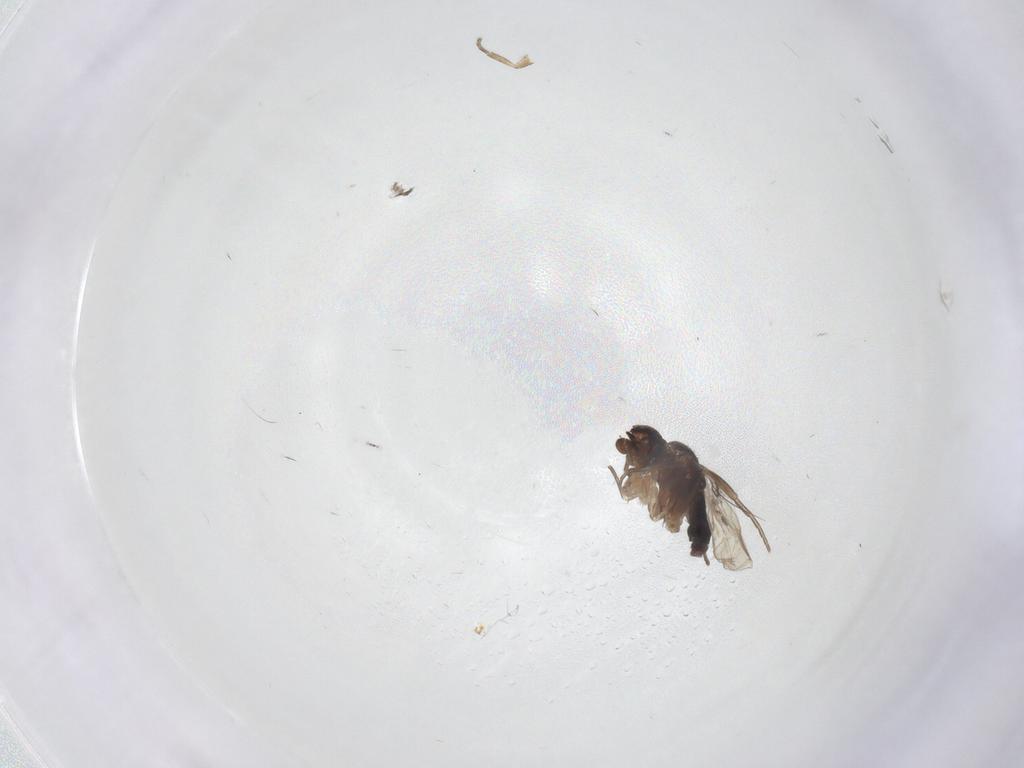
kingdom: Animalia
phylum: Arthropoda
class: Insecta
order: Diptera
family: Phoridae
